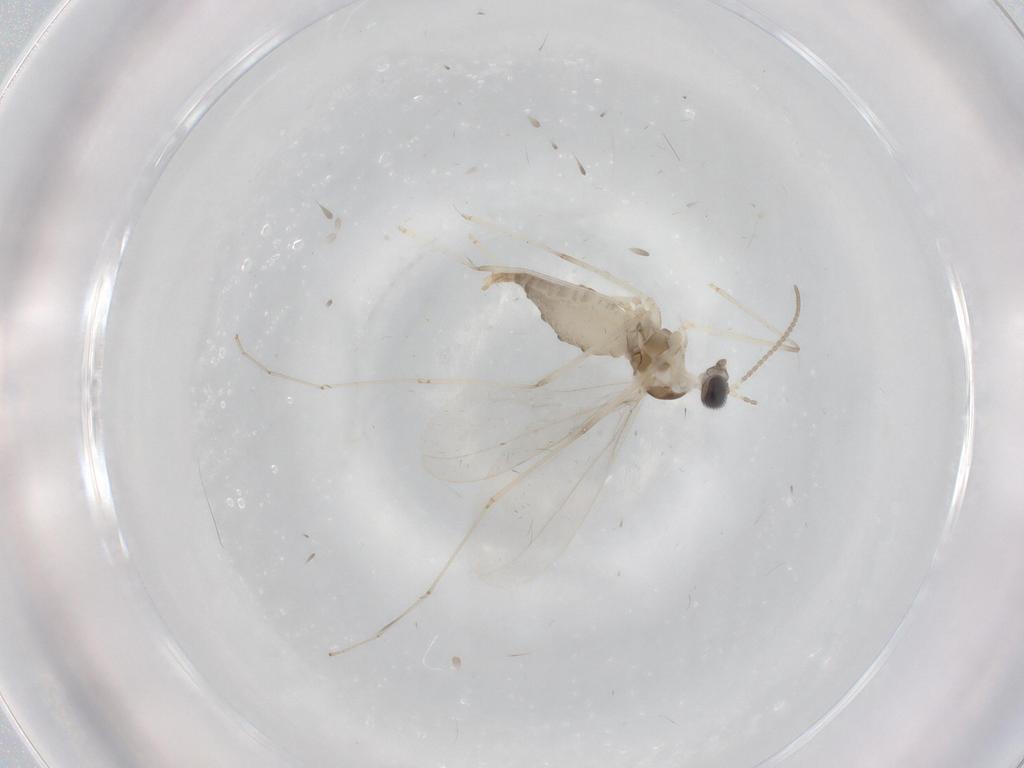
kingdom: Animalia
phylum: Arthropoda
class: Insecta
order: Diptera
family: Cecidomyiidae
